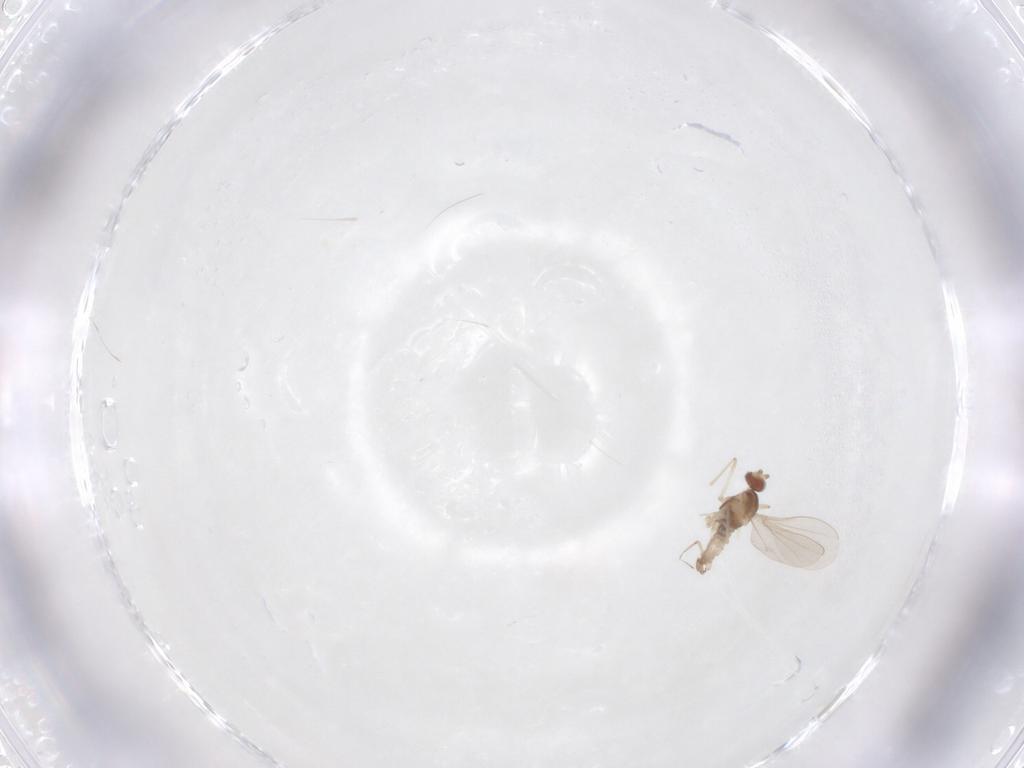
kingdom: Animalia
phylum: Arthropoda
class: Insecta
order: Diptera
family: Cecidomyiidae
